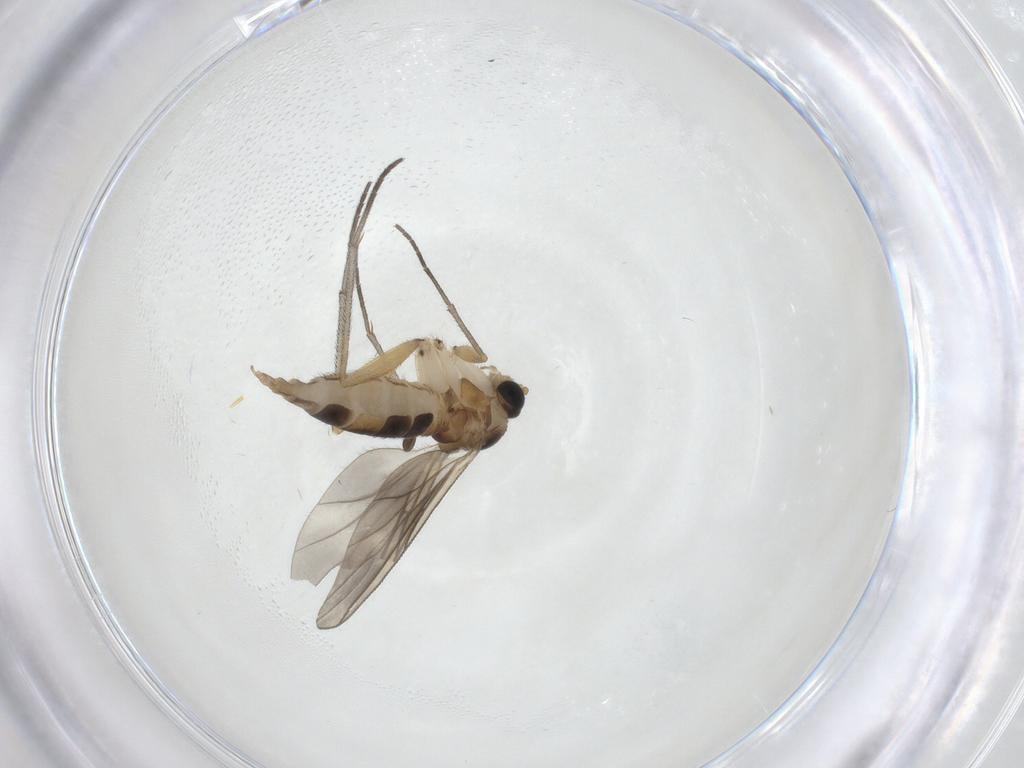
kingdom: Animalia
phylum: Arthropoda
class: Insecta
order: Diptera
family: Sciaridae
